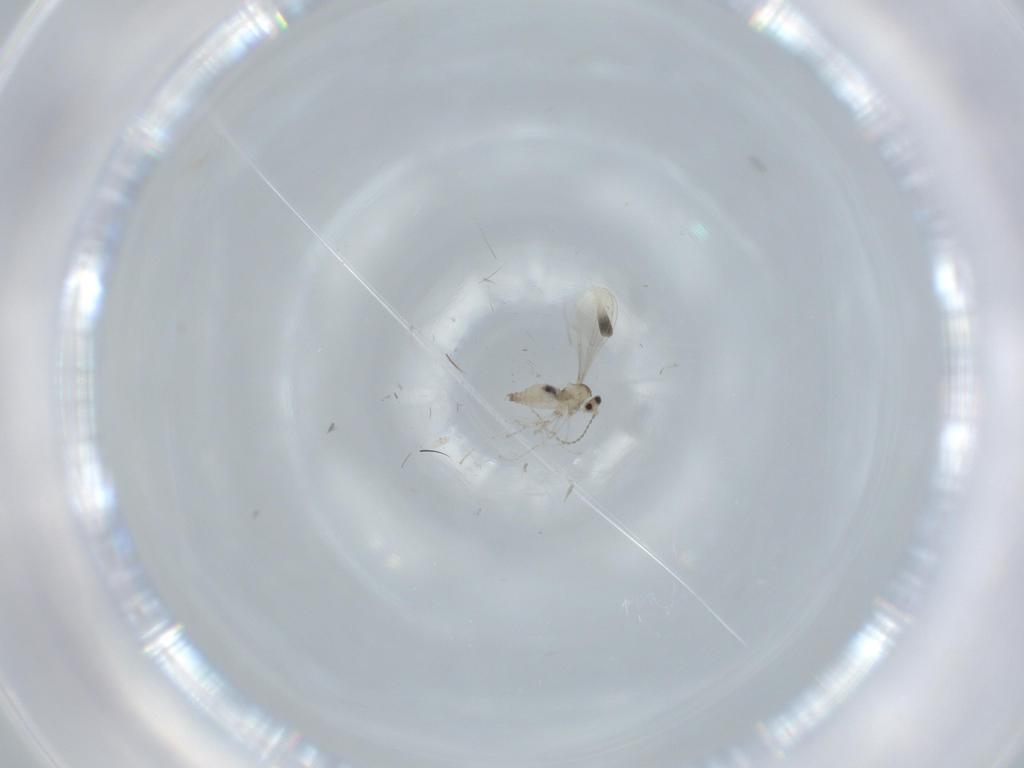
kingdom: Animalia
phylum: Arthropoda
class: Insecta
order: Diptera
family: Cecidomyiidae
